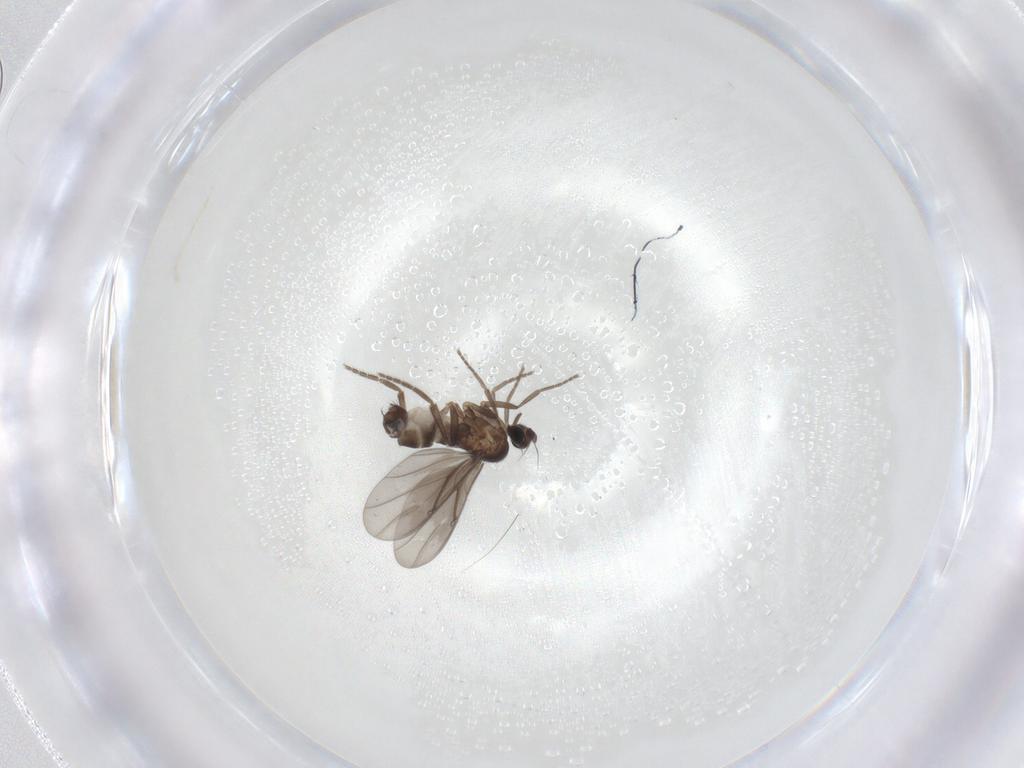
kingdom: Animalia
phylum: Arthropoda
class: Insecta
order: Diptera
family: Phoridae
